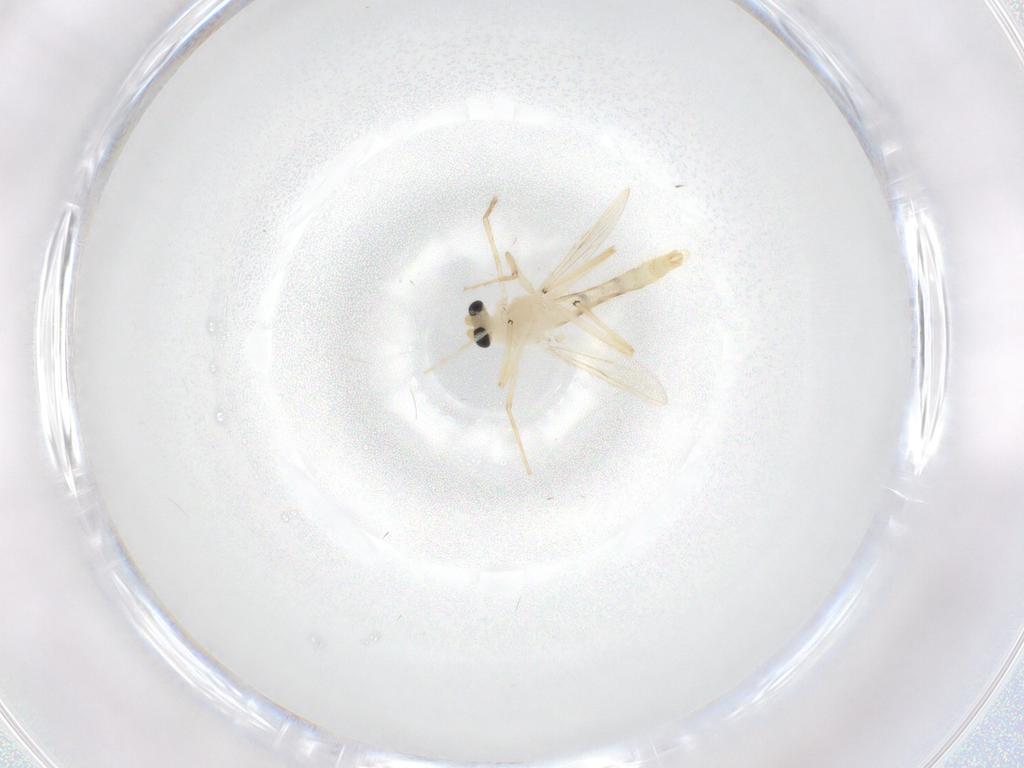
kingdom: Animalia
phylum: Arthropoda
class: Insecta
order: Diptera
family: Chironomidae
